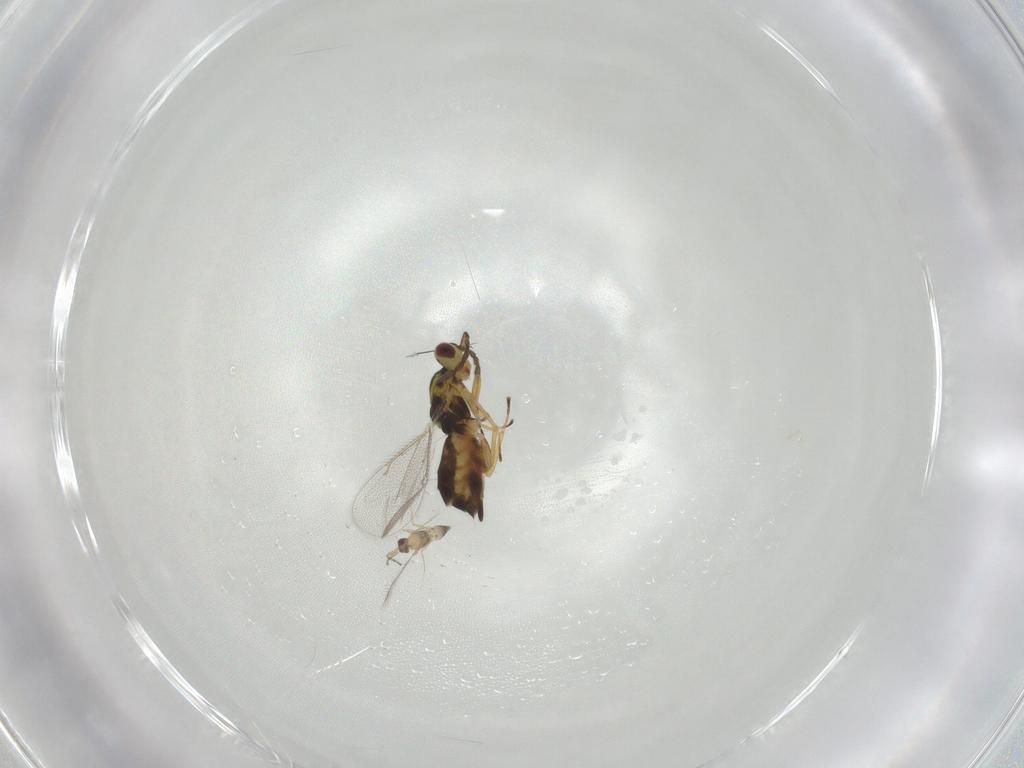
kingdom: Animalia
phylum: Arthropoda
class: Insecta
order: Hymenoptera
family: Eulophidae
